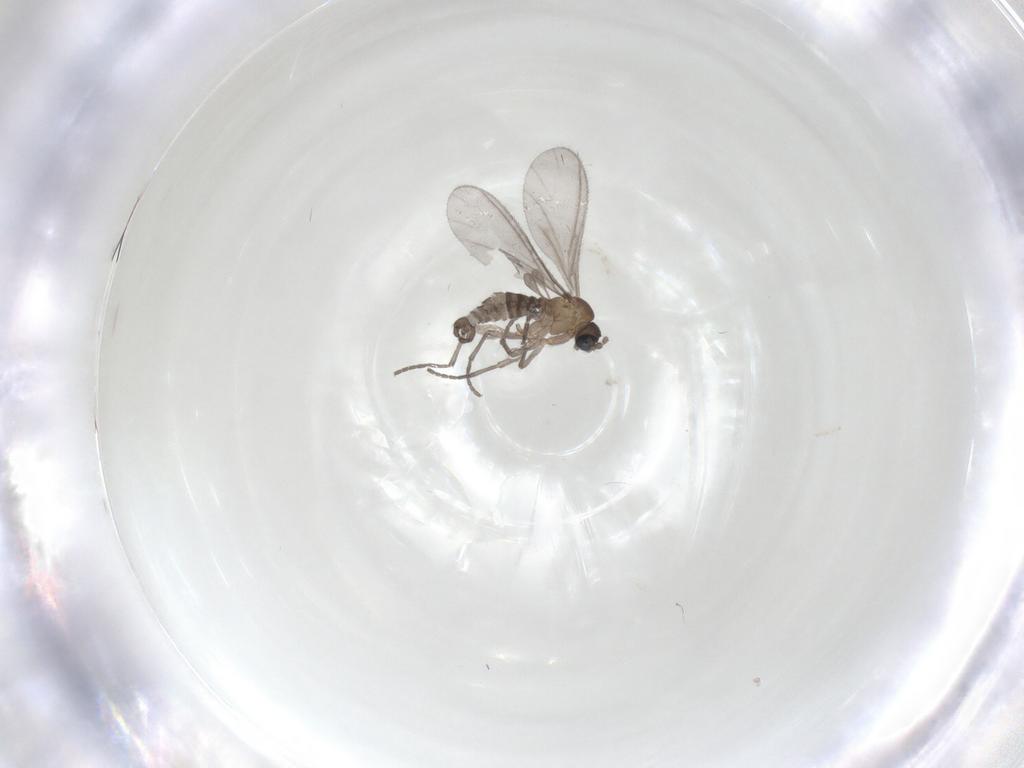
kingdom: Animalia
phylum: Arthropoda
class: Insecta
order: Diptera
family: Sciaridae
